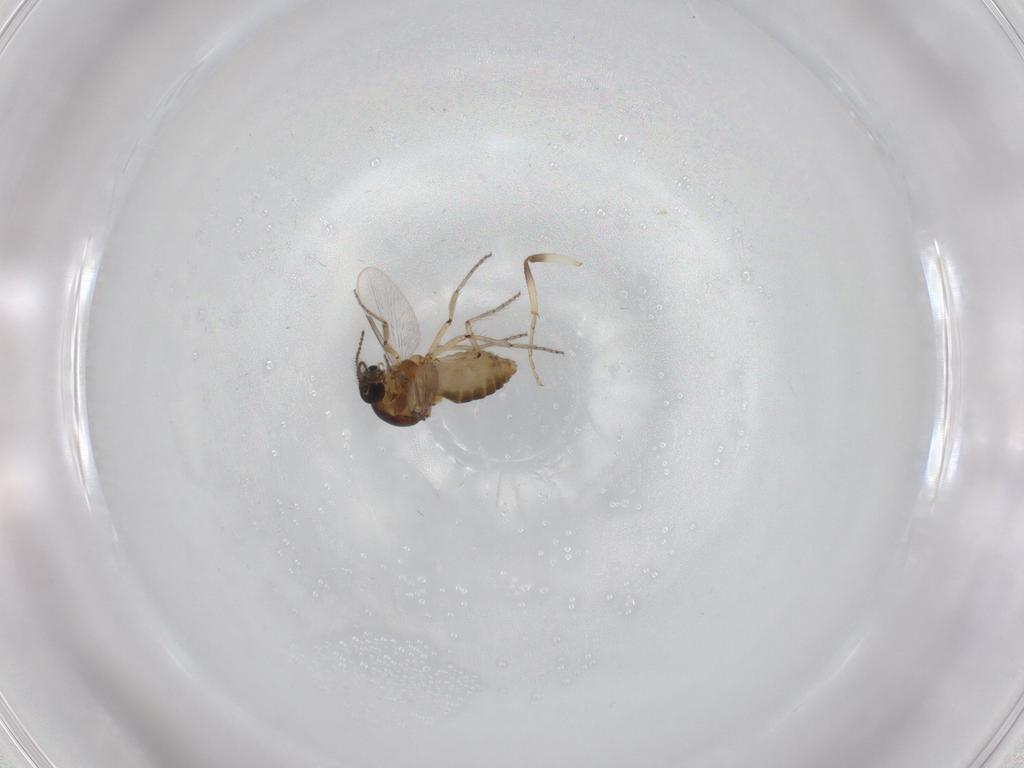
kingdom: Animalia
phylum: Arthropoda
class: Insecta
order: Diptera
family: Ceratopogonidae
